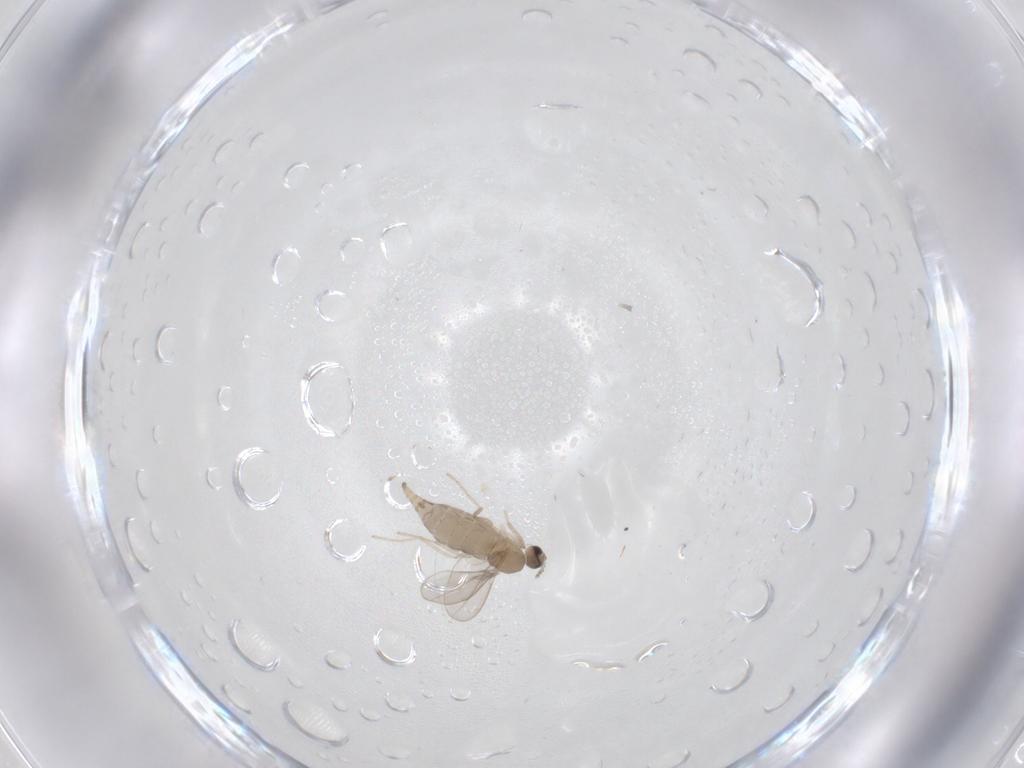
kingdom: Animalia
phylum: Arthropoda
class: Insecta
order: Diptera
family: Cecidomyiidae
